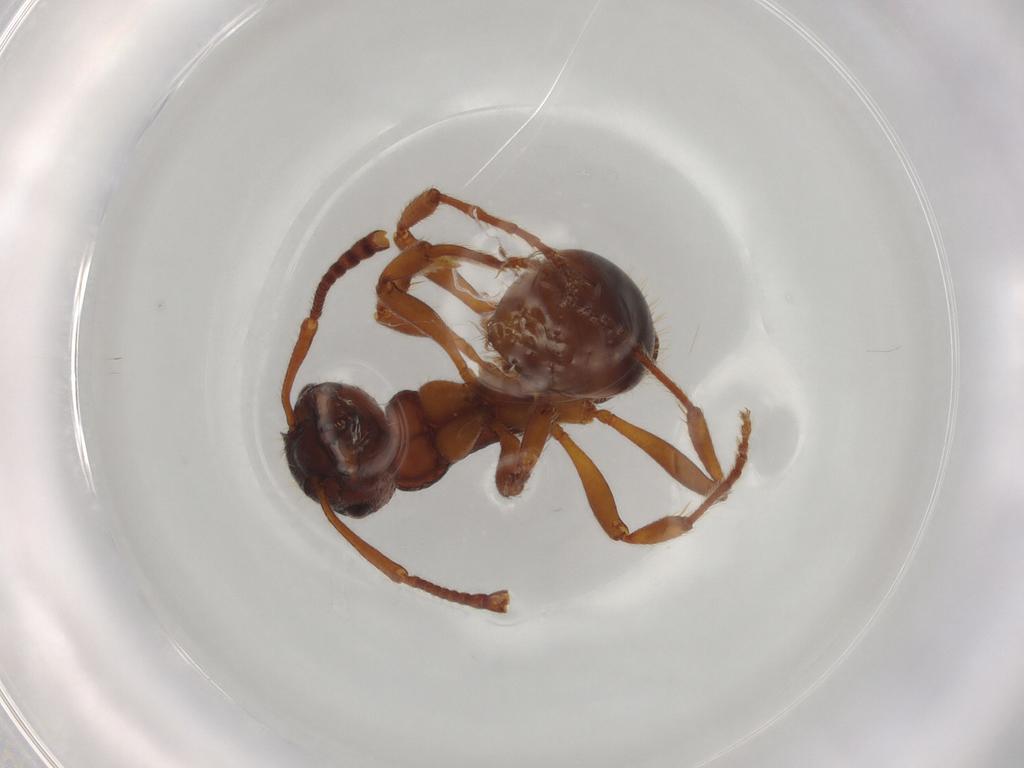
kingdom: Animalia
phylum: Arthropoda
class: Insecta
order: Hymenoptera
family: Formicidae
